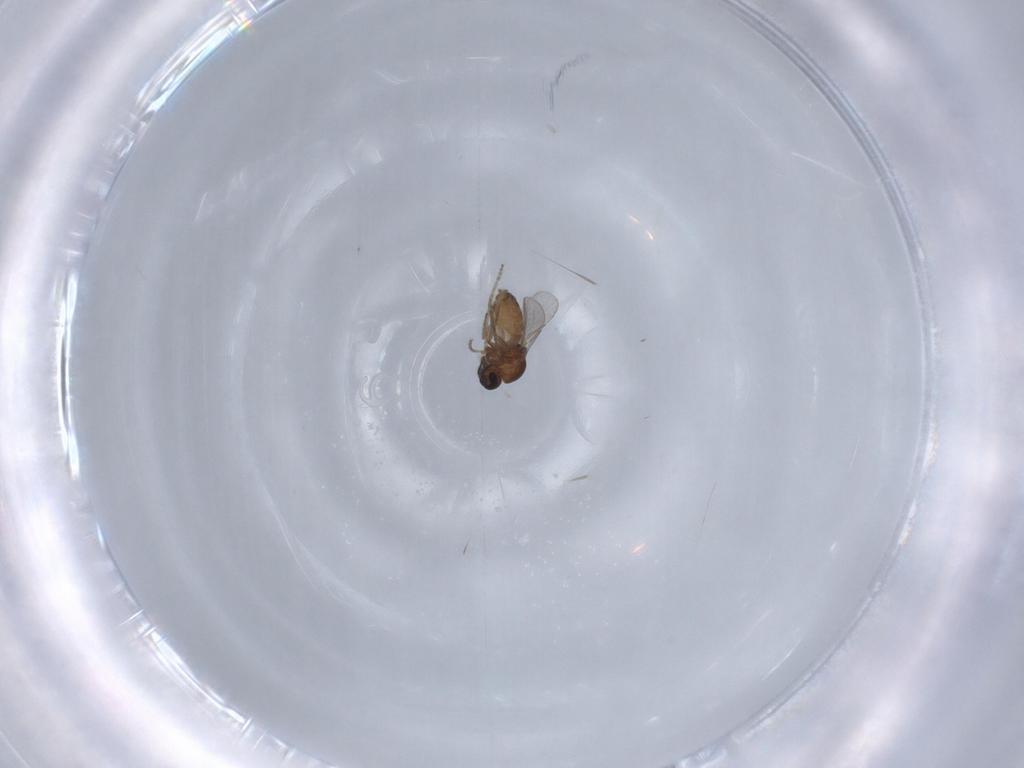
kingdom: Animalia
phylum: Arthropoda
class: Insecta
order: Diptera
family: Ceratopogonidae
